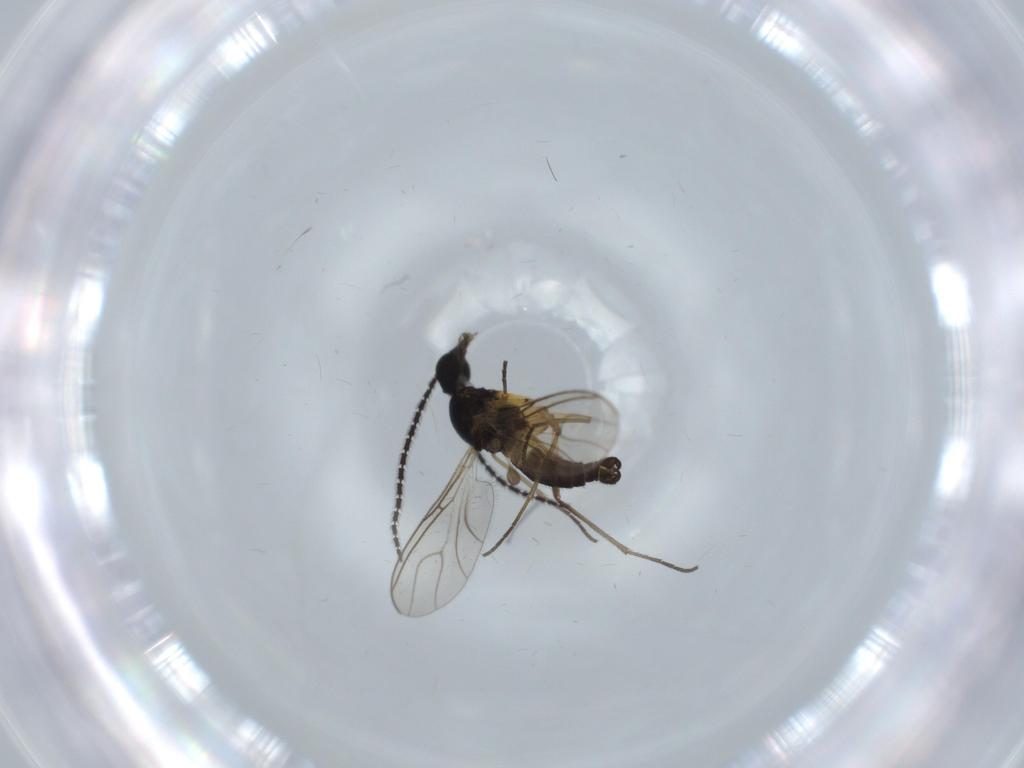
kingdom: Animalia
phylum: Arthropoda
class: Insecta
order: Diptera
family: Sciaridae
